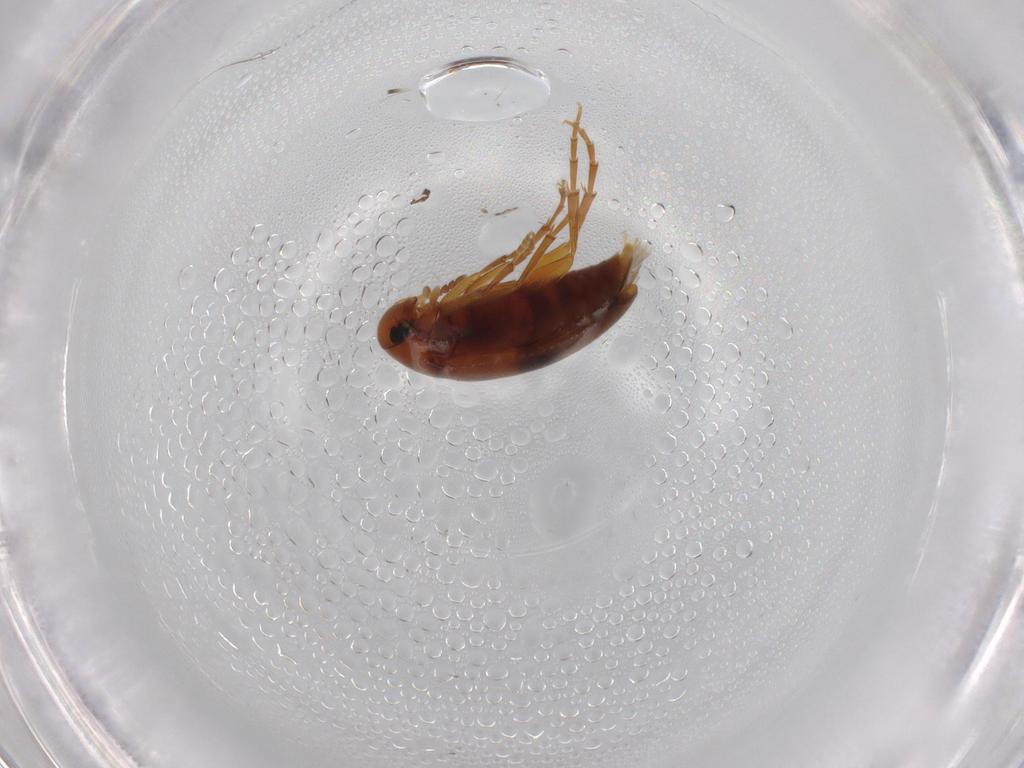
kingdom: Animalia
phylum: Arthropoda
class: Insecta
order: Coleoptera
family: Scraptiidae
